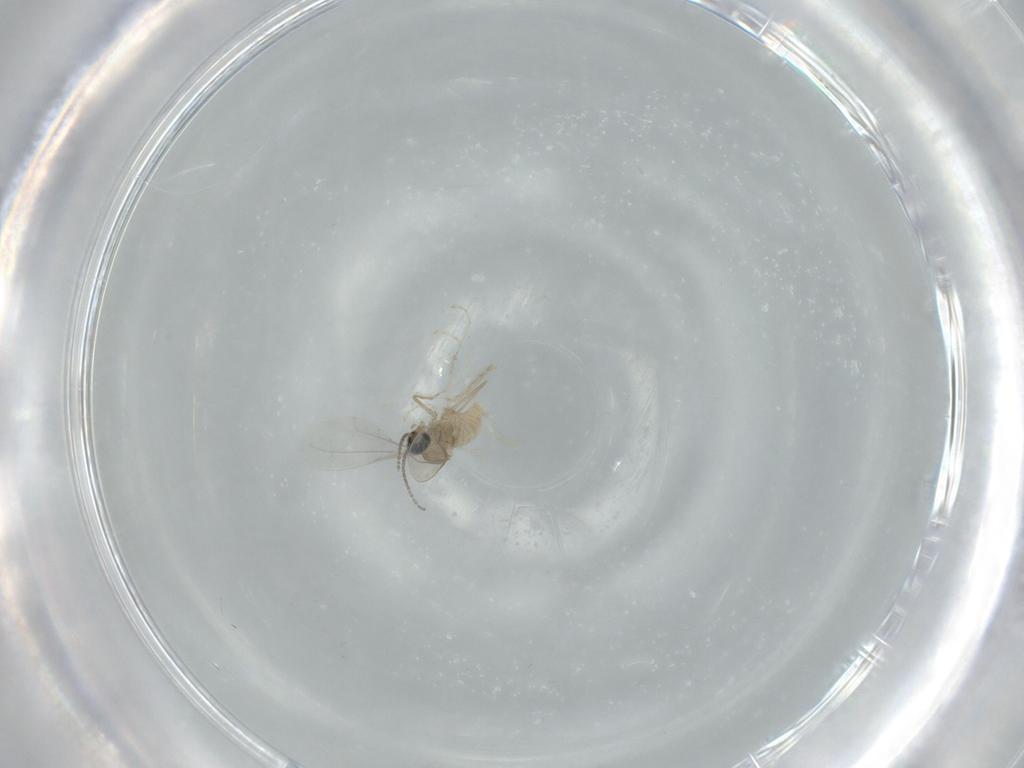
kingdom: Animalia
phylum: Arthropoda
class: Insecta
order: Diptera
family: Cecidomyiidae
